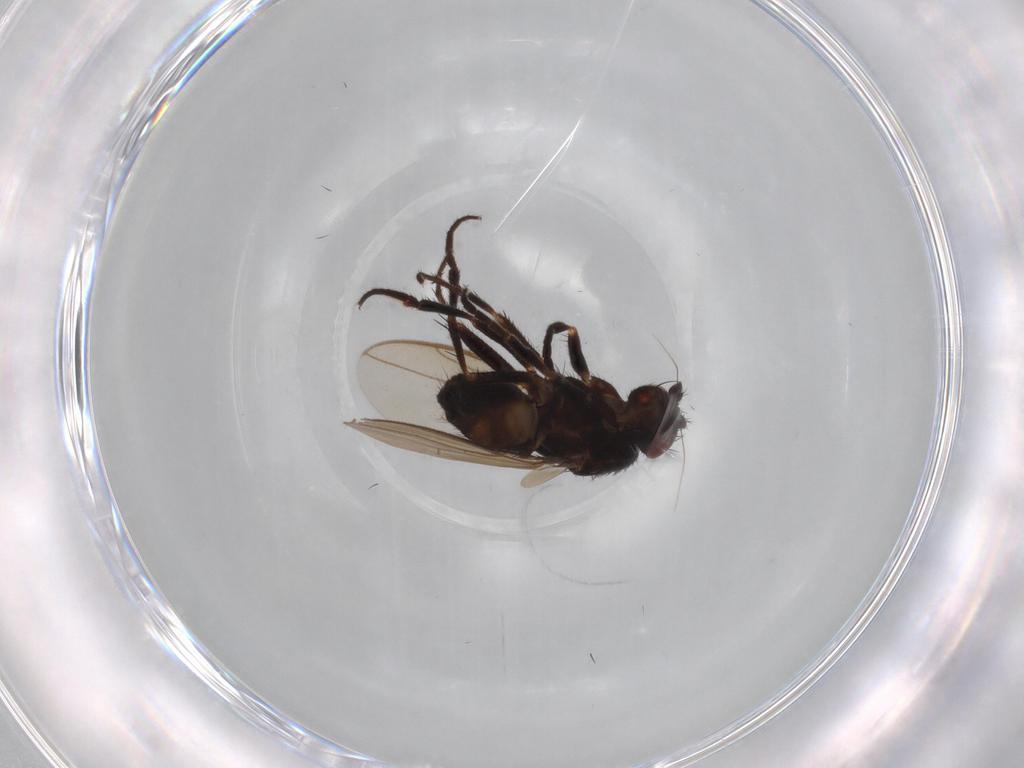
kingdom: Animalia
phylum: Arthropoda
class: Insecta
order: Diptera
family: Sphaeroceridae
